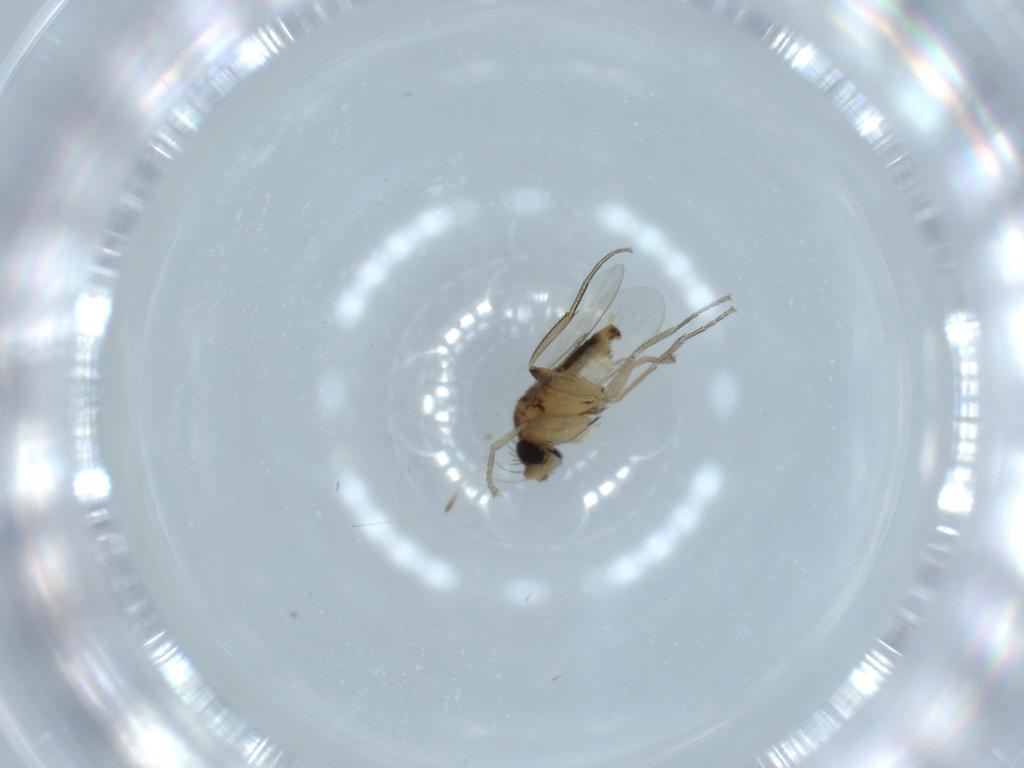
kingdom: Animalia
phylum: Arthropoda
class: Insecta
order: Diptera
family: Phoridae
